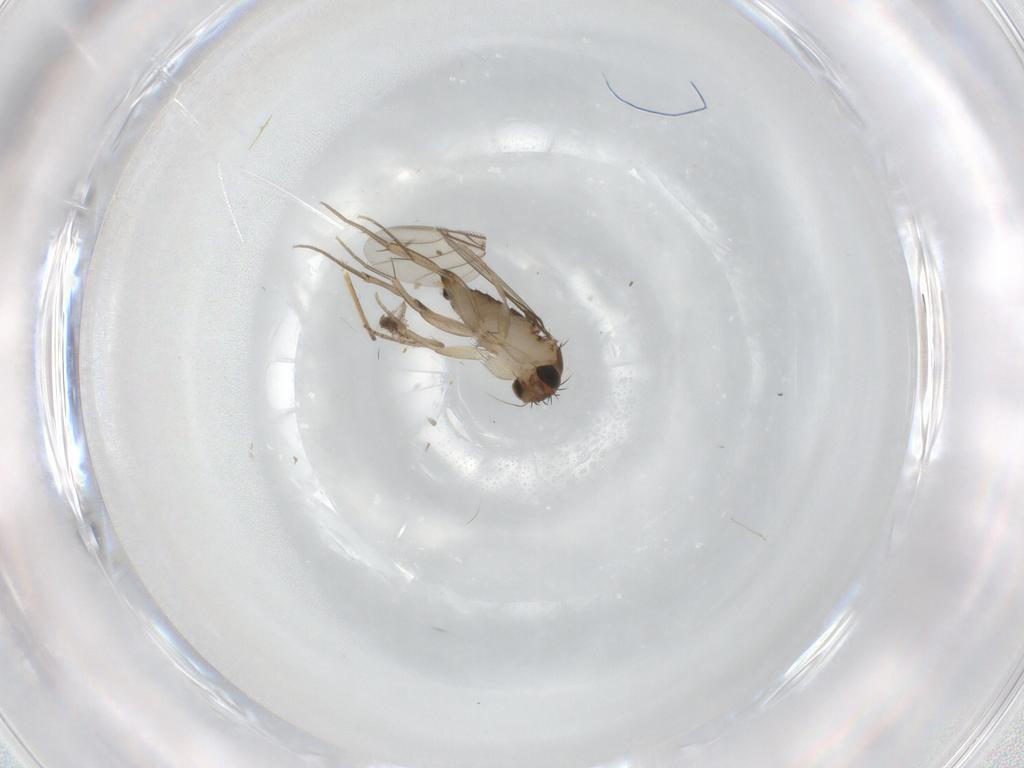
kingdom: Animalia
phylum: Arthropoda
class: Insecta
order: Diptera
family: Phoridae
